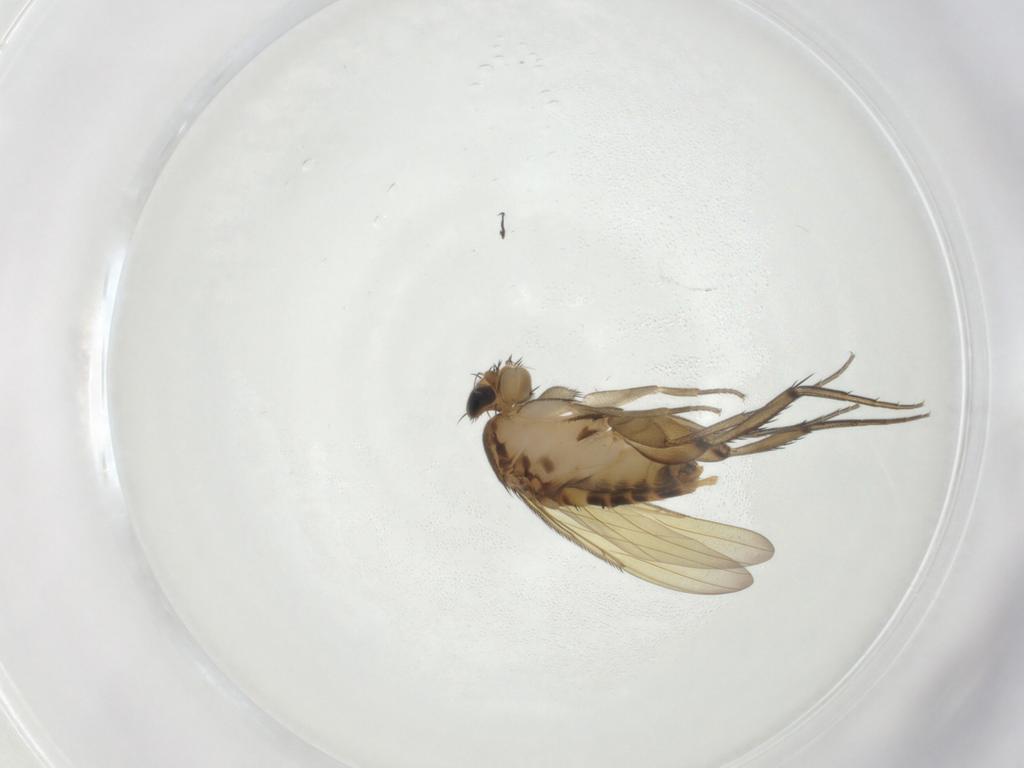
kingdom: Animalia
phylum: Arthropoda
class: Insecta
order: Diptera
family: Phoridae
